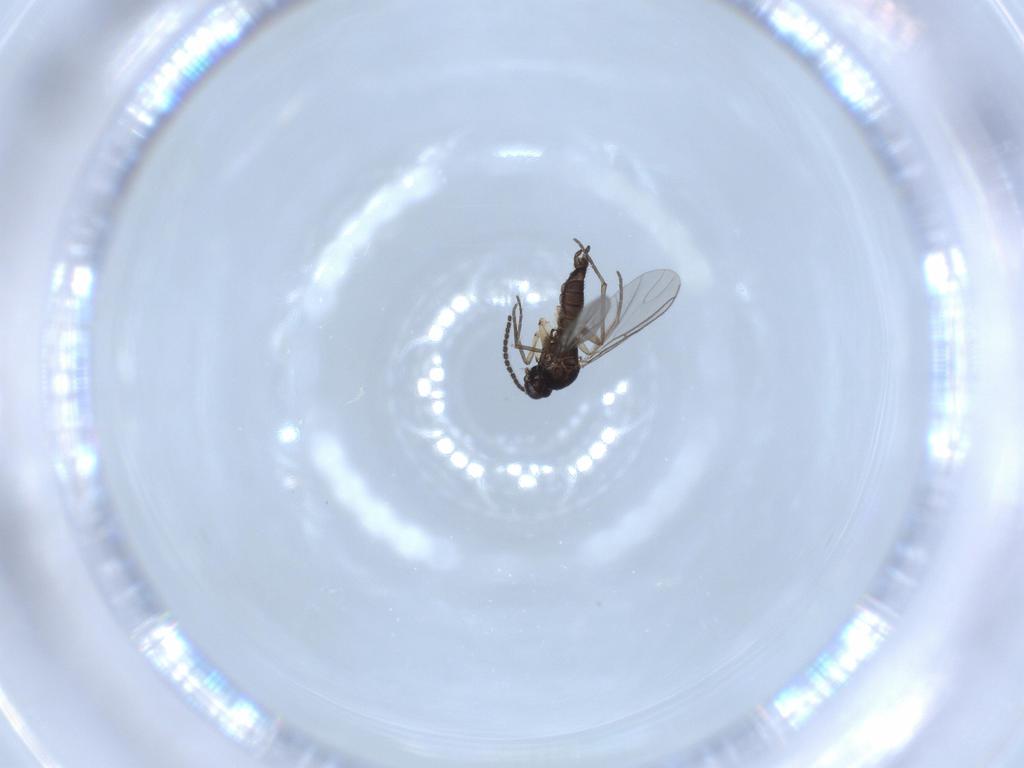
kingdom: Animalia
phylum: Arthropoda
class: Insecta
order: Diptera
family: Sciaridae
